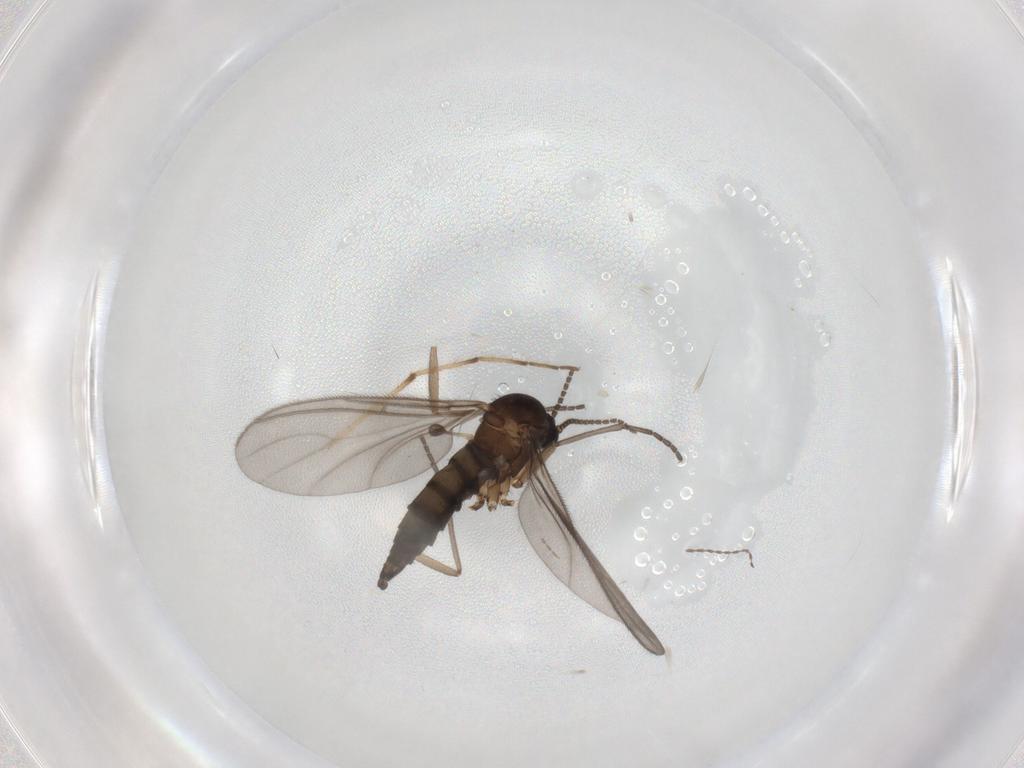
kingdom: Animalia
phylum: Arthropoda
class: Insecta
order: Diptera
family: Sciaridae
